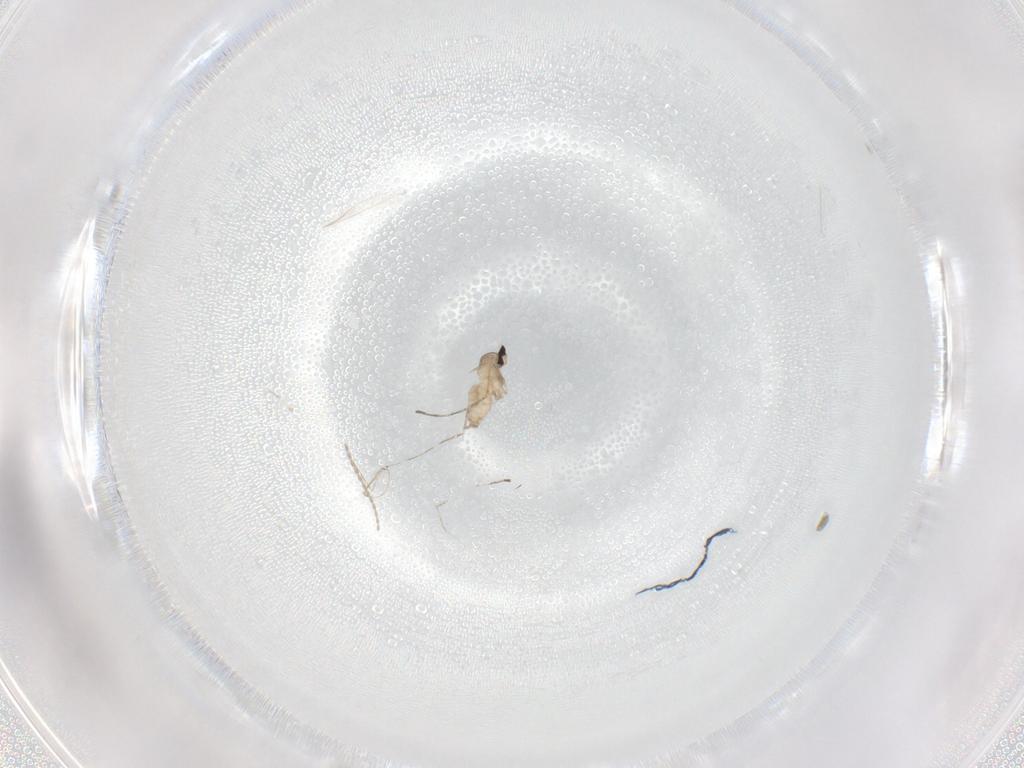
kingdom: Animalia
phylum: Arthropoda
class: Insecta
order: Diptera
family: Cecidomyiidae
